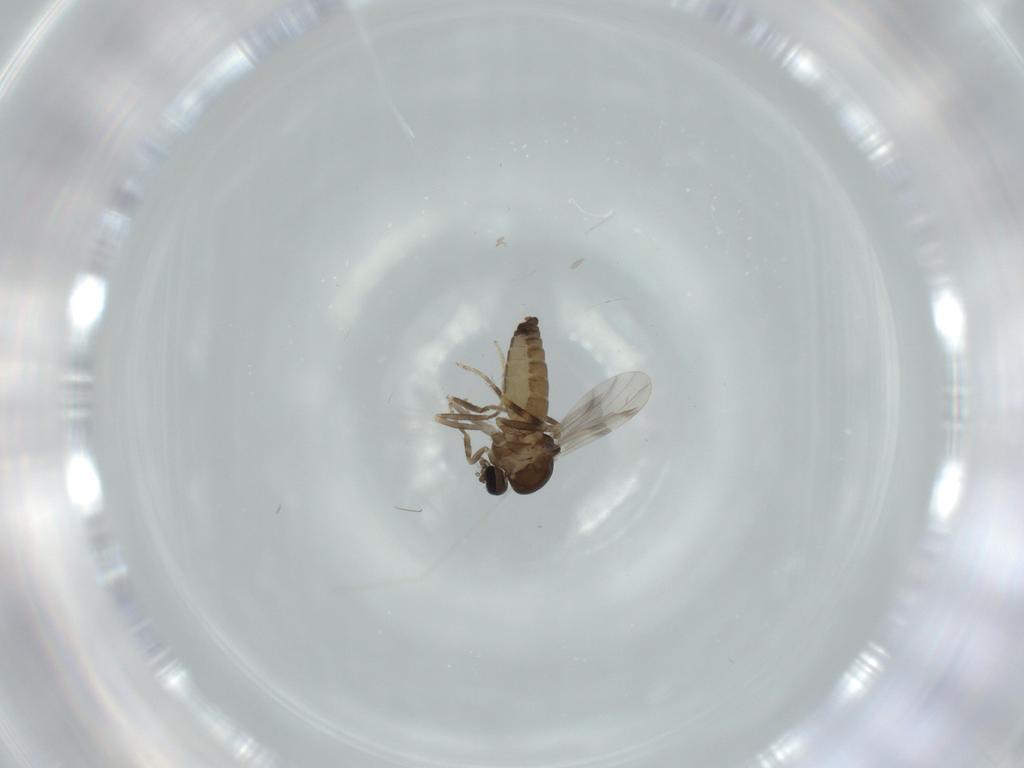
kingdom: Animalia
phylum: Arthropoda
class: Insecta
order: Diptera
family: Ceratopogonidae
